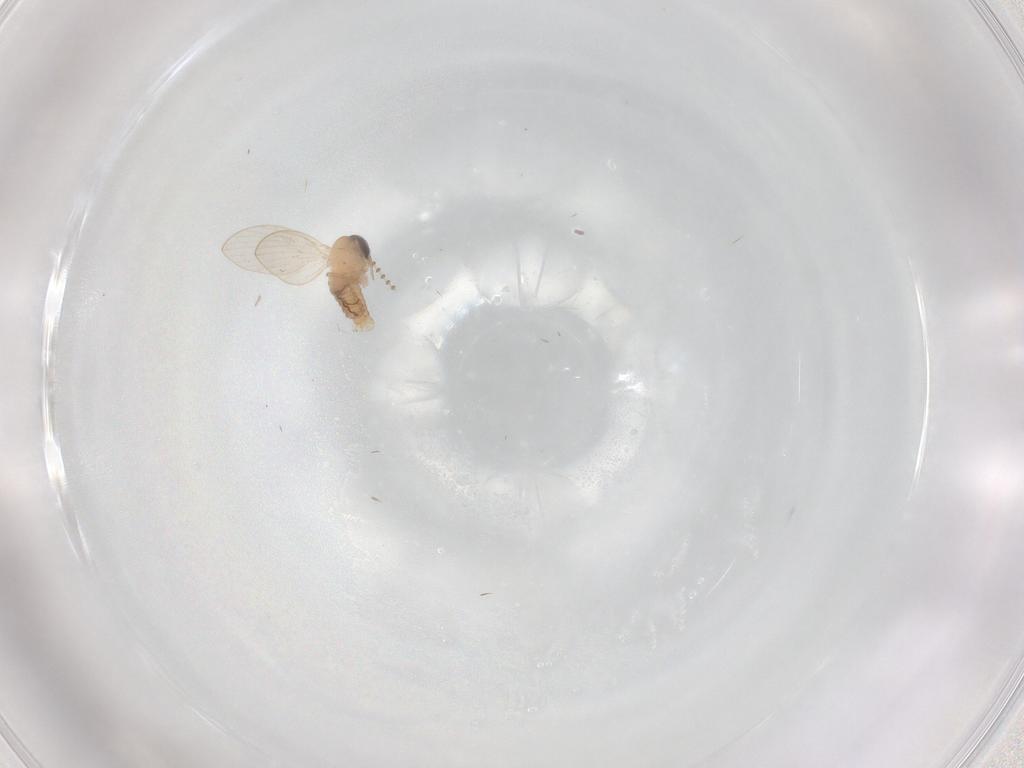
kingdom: Animalia
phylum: Arthropoda
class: Insecta
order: Diptera
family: Psychodidae
